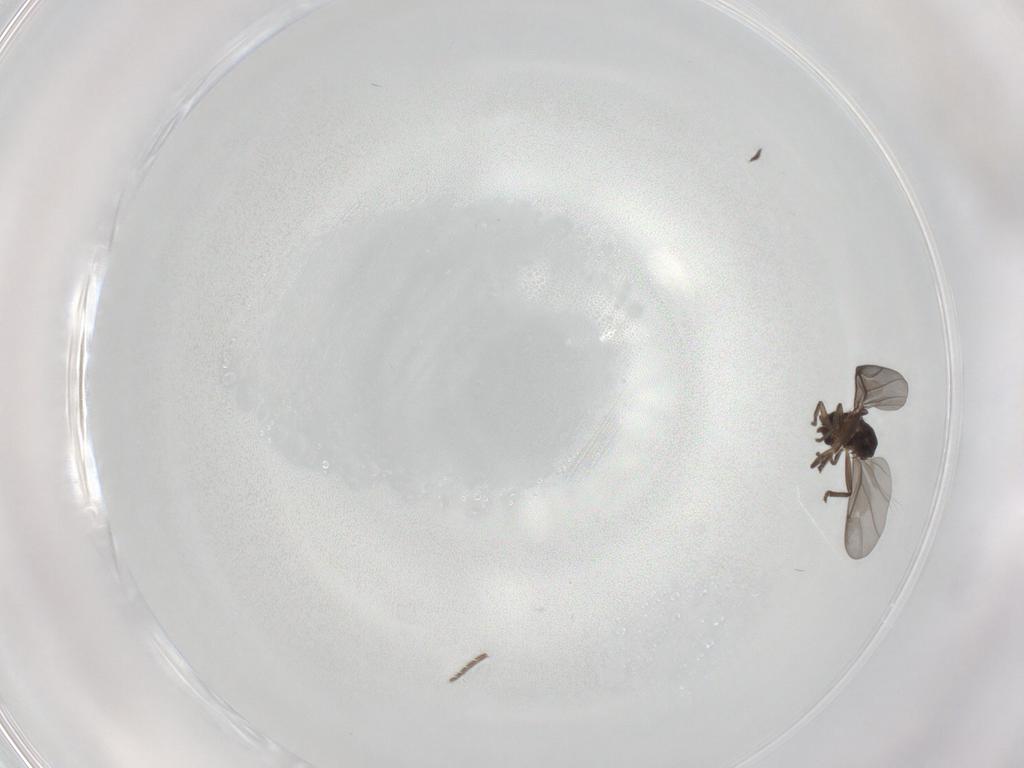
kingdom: Animalia
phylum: Arthropoda
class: Insecta
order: Diptera
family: Phoridae
